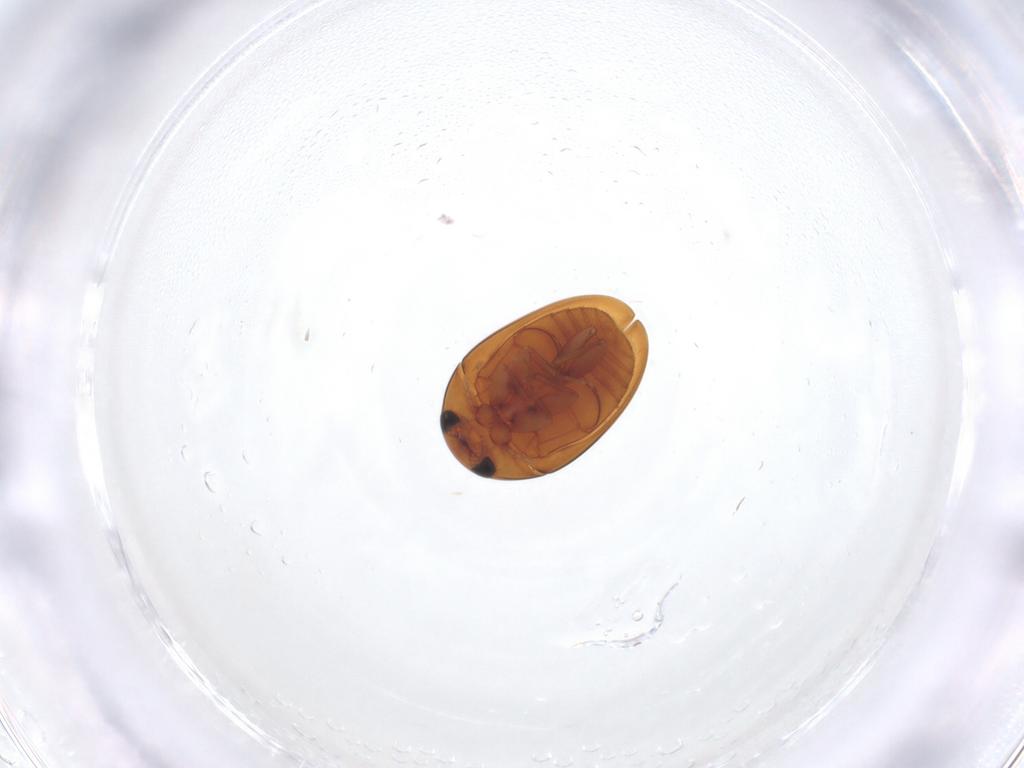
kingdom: Animalia
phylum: Arthropoda
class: Insecta
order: Coleoptera
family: Phalacridae
